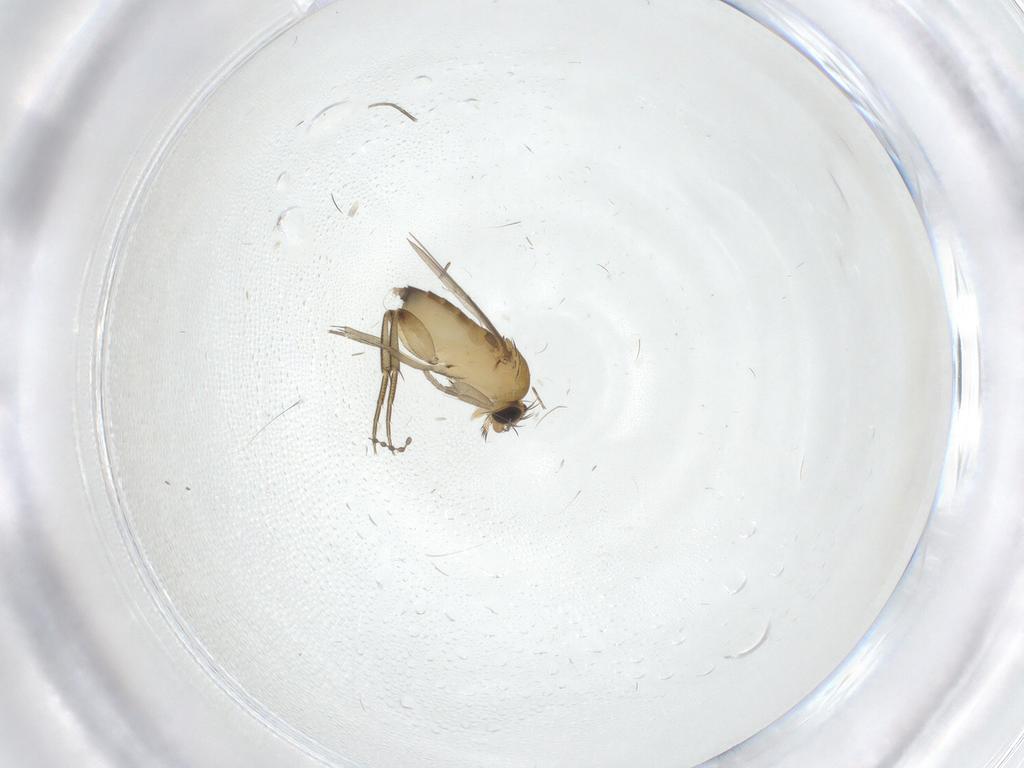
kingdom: Animalia
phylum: Arthropoda
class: Insecta
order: Diptera
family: Phoridae
